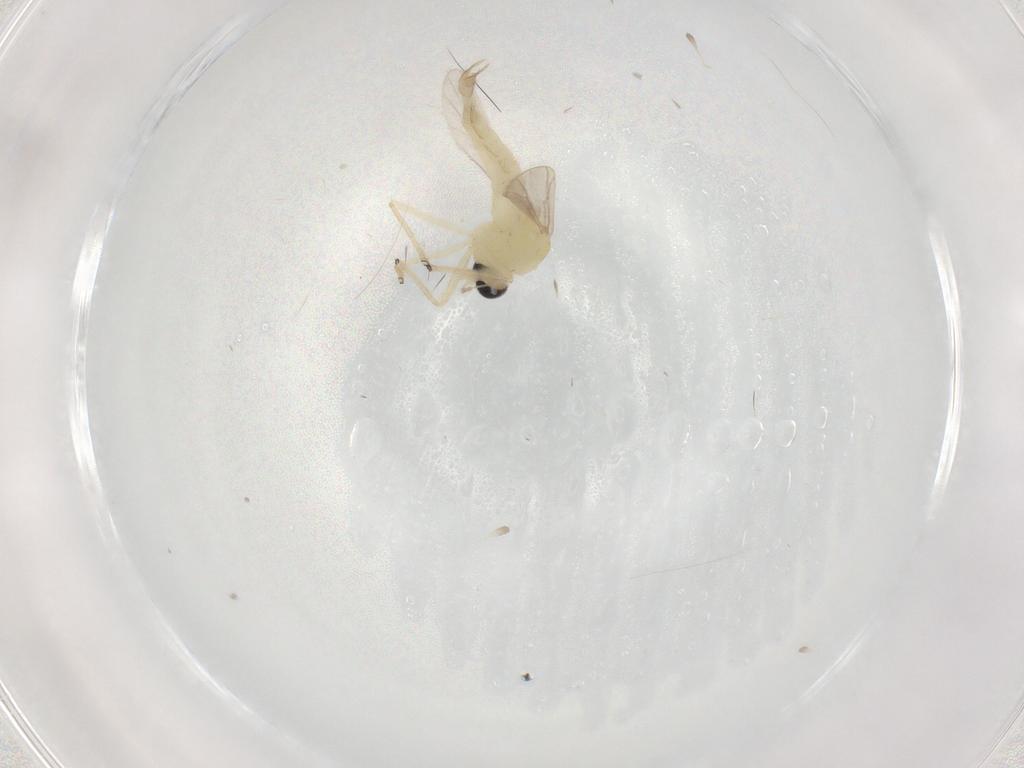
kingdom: Animalia
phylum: Arthropoda
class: Insecta
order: Diptera
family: Chironomidae
